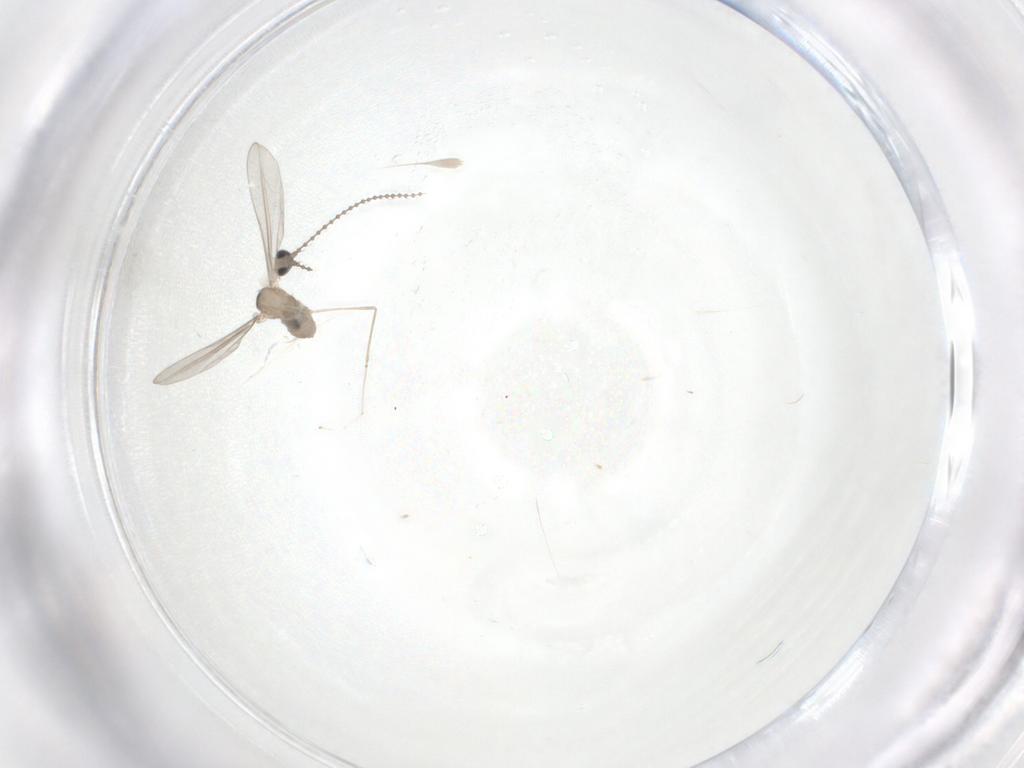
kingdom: Animalia
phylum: Arthropoda
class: Insecta
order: Diptera
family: Cecidomyiidae
